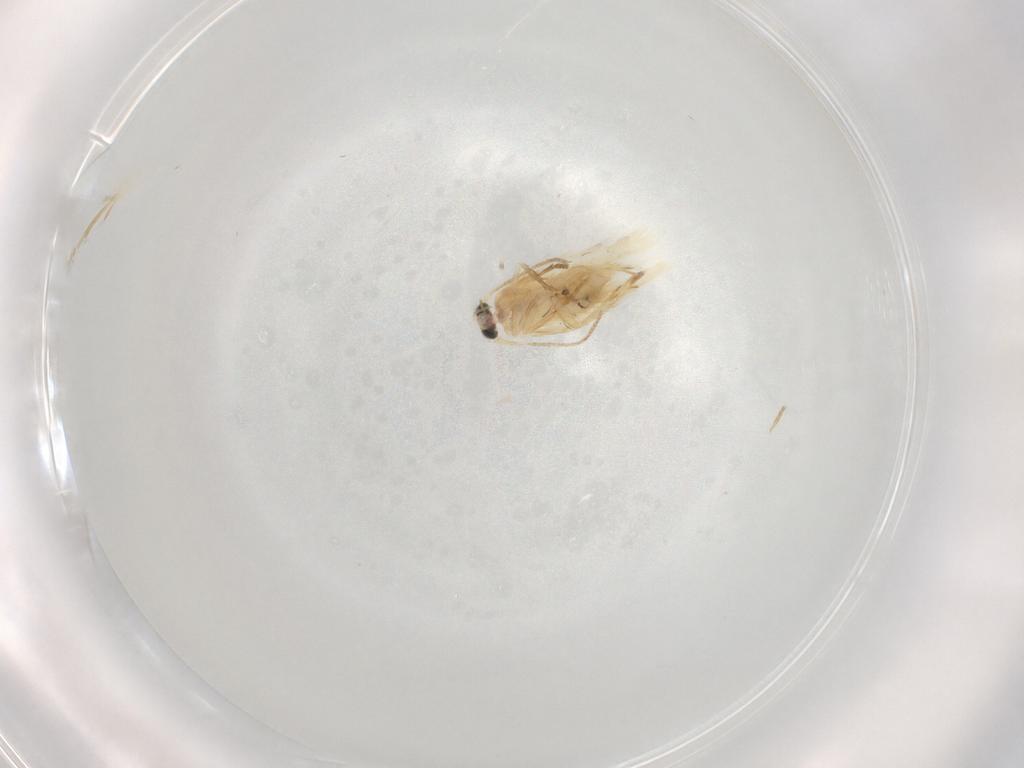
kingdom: Animalia
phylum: Arthropoda
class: Insecta
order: Lepidoptera
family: Nepticulidae
